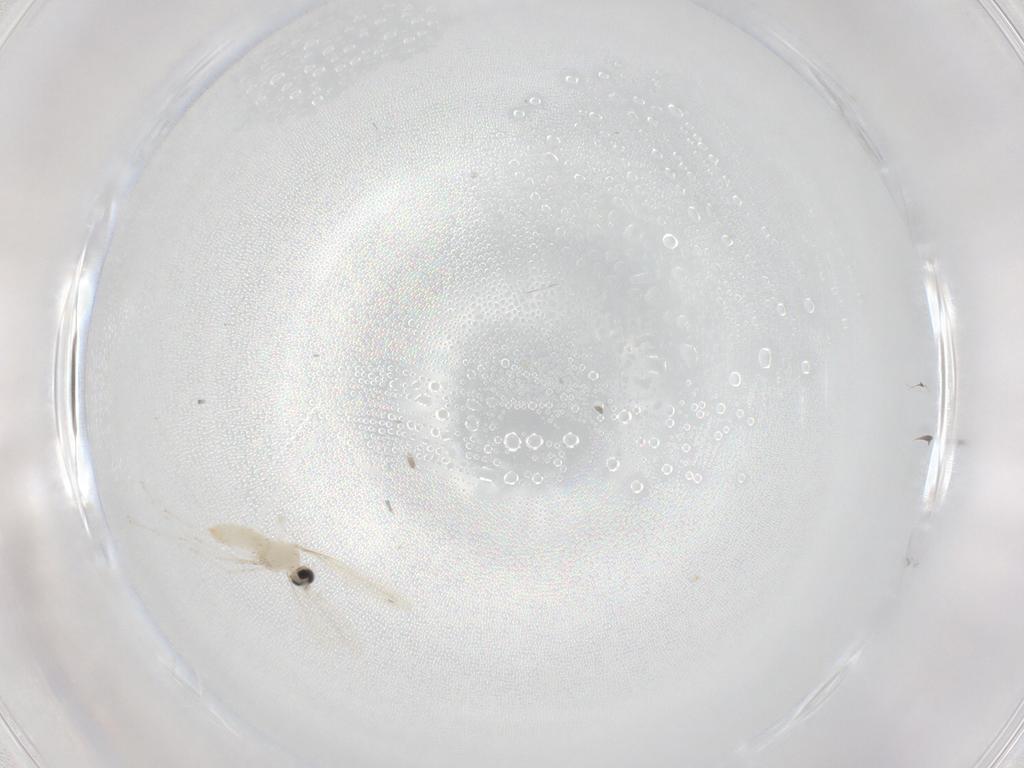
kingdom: Animalia
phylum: Arthropoda
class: Insecta
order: Diptera
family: Cecidomyiidae
